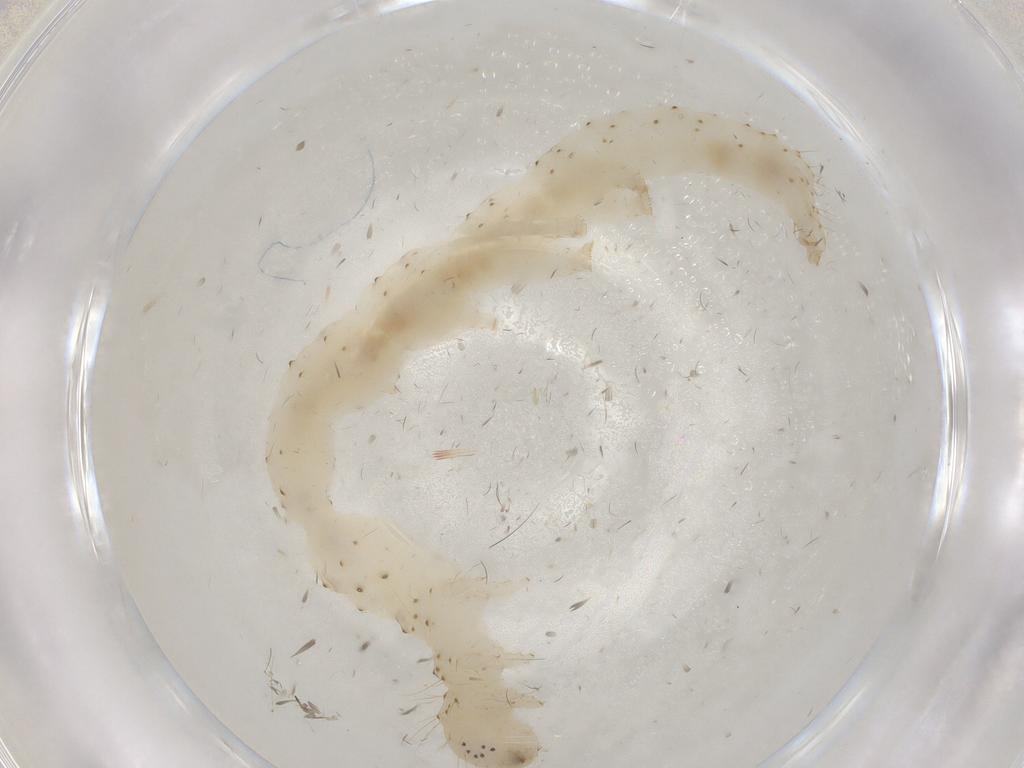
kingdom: Animalia
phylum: Arthropoda
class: Insecta
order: Lepidoptera
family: Erebidae
